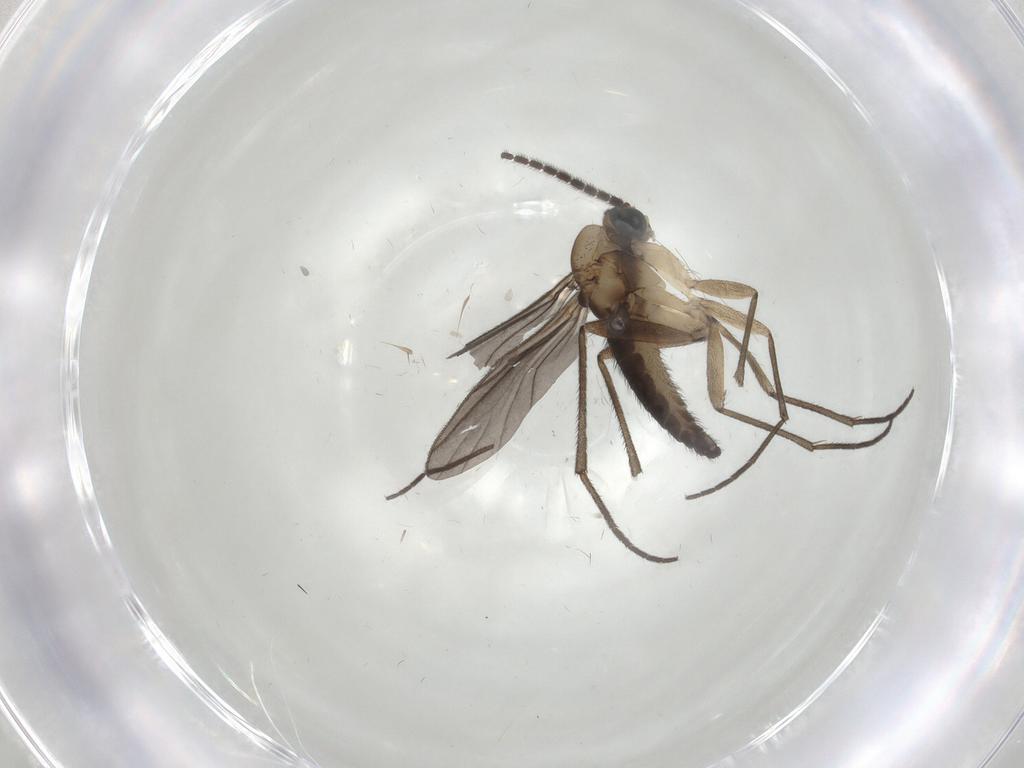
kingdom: Animalia
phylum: Arthropoda
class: Insecta
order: Diptera
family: Sciaridae
